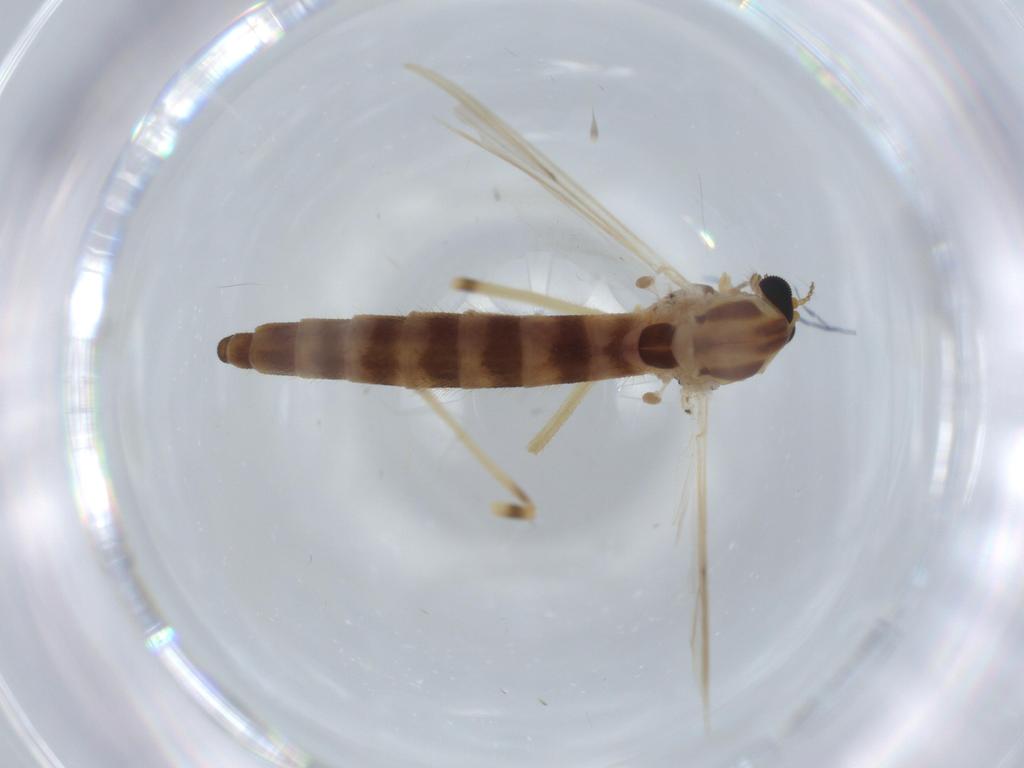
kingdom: Animalia
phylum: Arthropoda
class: Insecta
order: Diptera
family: Chironomidae
